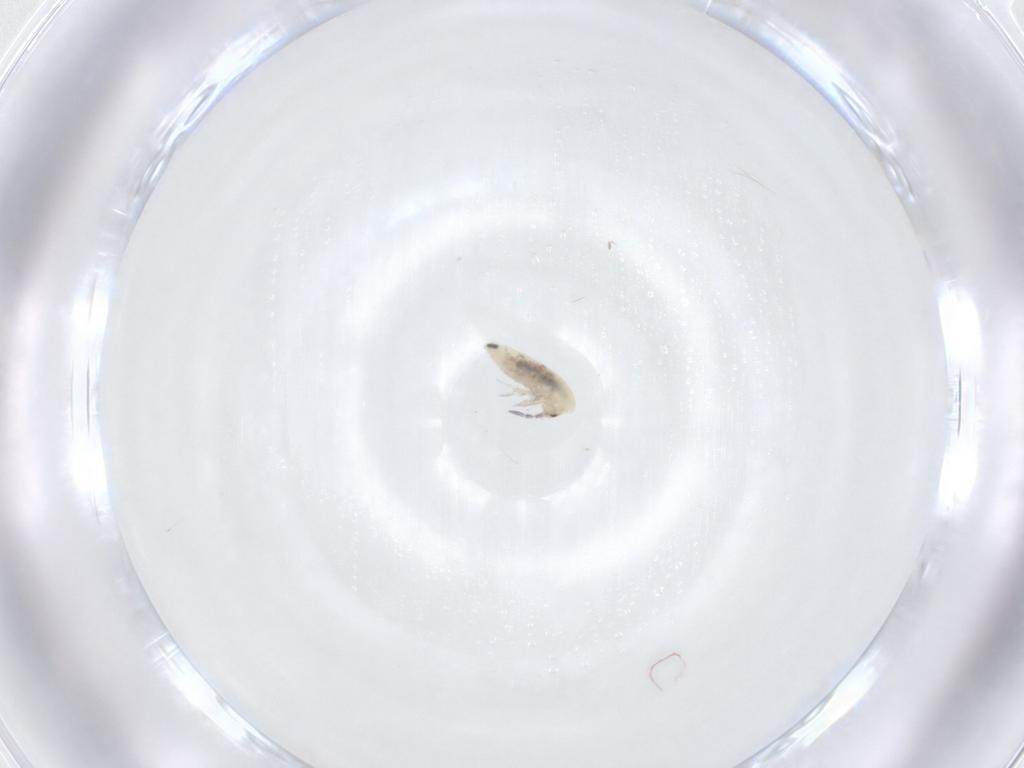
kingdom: Animalia
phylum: Arthropoda
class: Collembola
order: Entomobryomorpha
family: Entomobryidae
